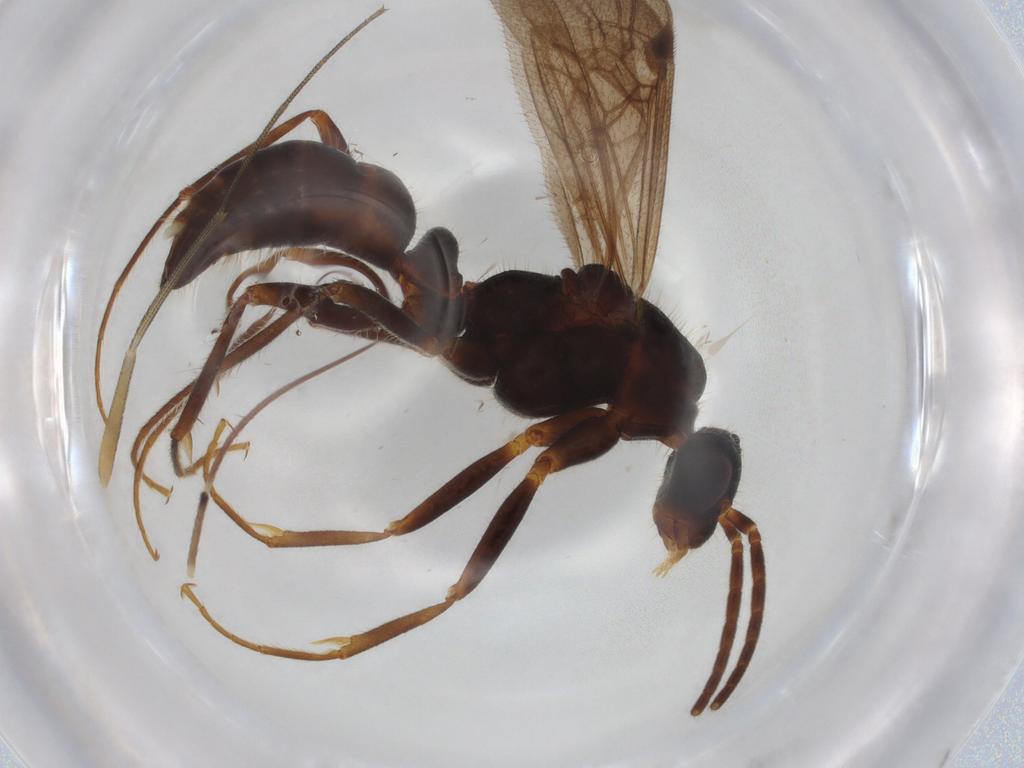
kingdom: Animalia
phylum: Arthropoda
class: Insecta
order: Hymenoptera
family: Formicidae
